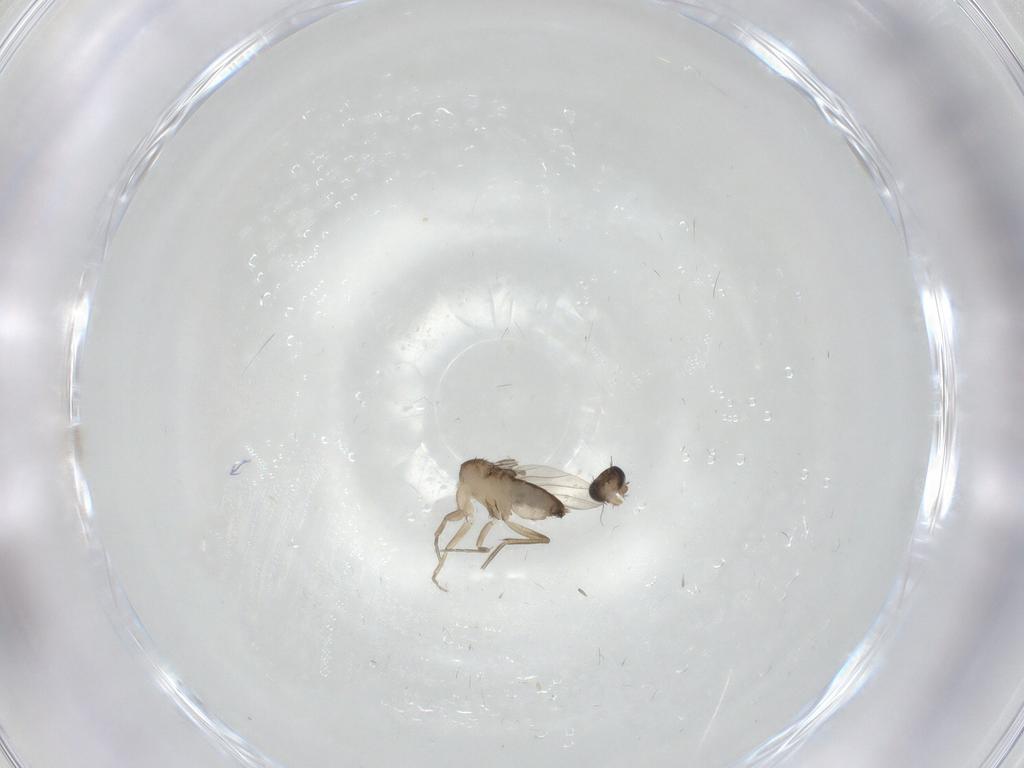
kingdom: Animalia
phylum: Arthropoda
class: Insecta
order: Diptera
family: Phoridae
